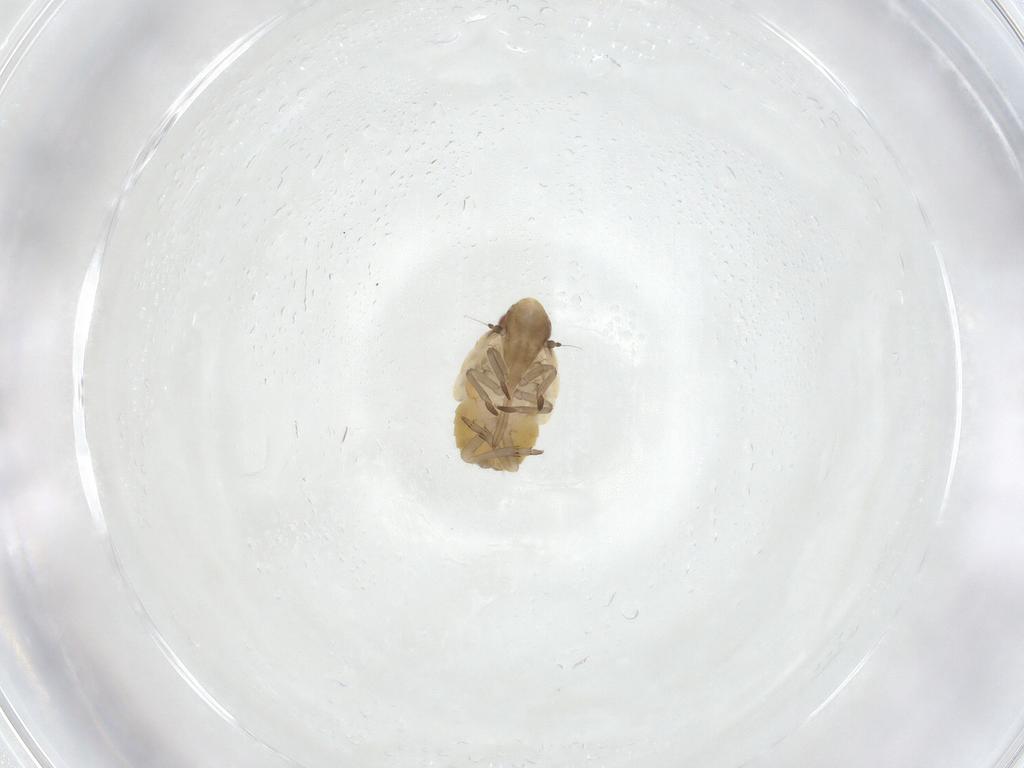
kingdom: Animalia
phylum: Arthropoda
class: Insecta
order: Hemiptera
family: Flatidae
